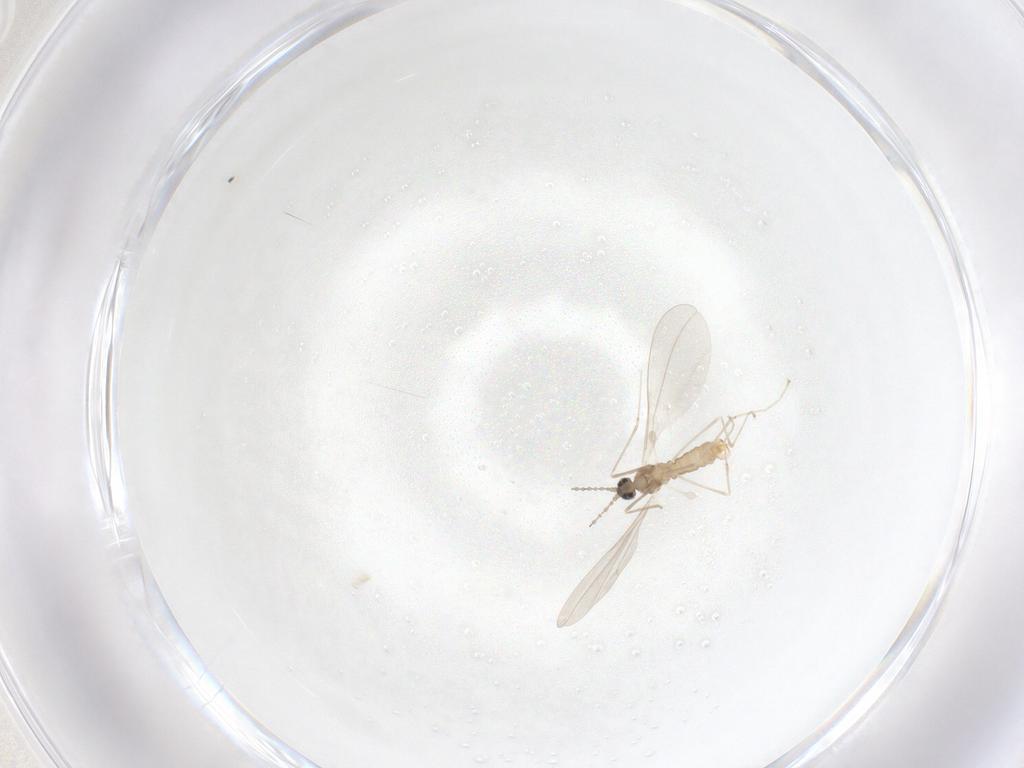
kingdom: Animalia
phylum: Arthropoda
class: Insecta
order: Diptera
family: Cecidomyiidae
